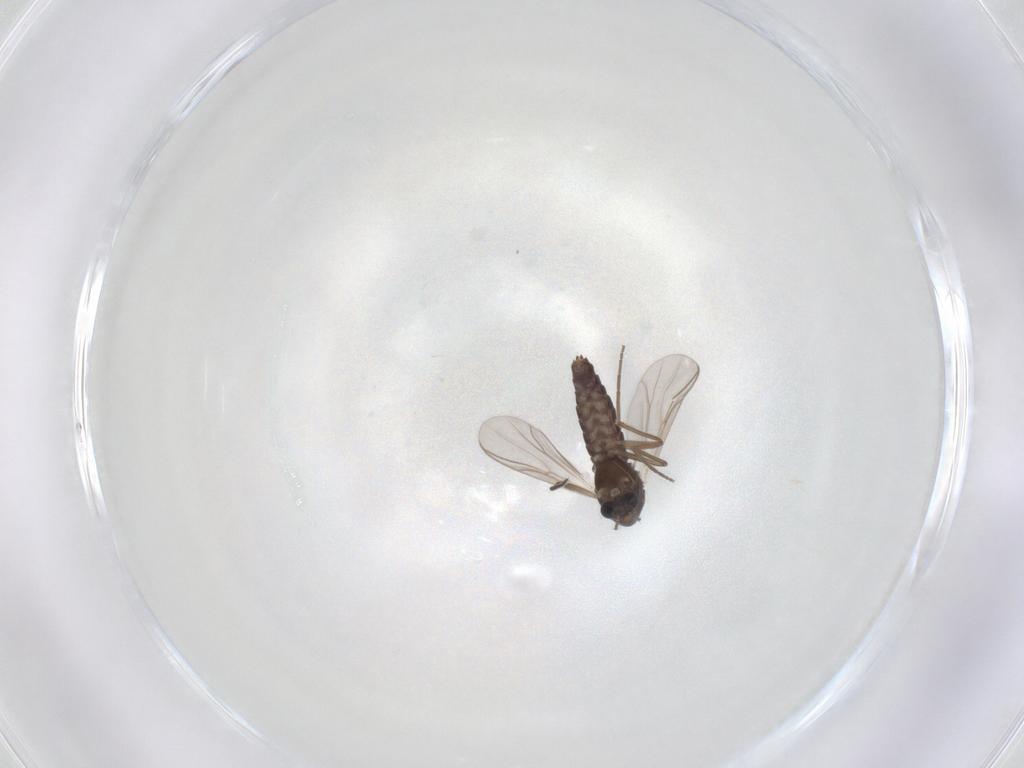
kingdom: Animalia
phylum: Arthropoda
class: Insecta
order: Diptera
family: Chironomidae
